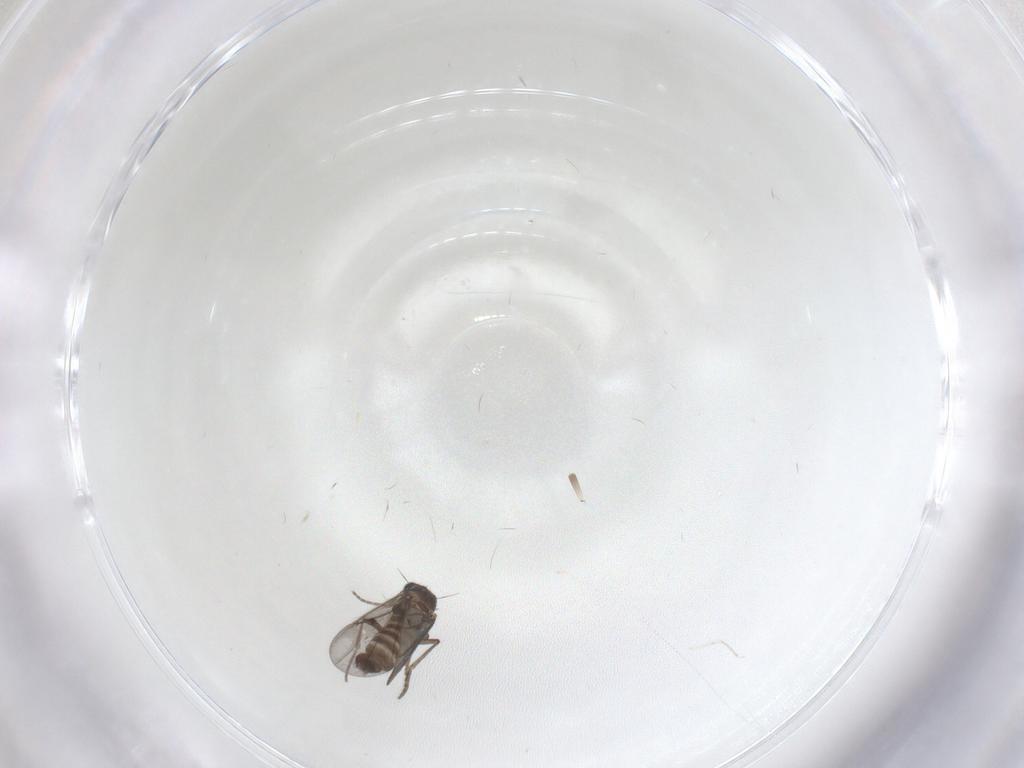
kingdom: Animalia
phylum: Arthropoda
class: Insecta
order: Diptera
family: Phoridae
